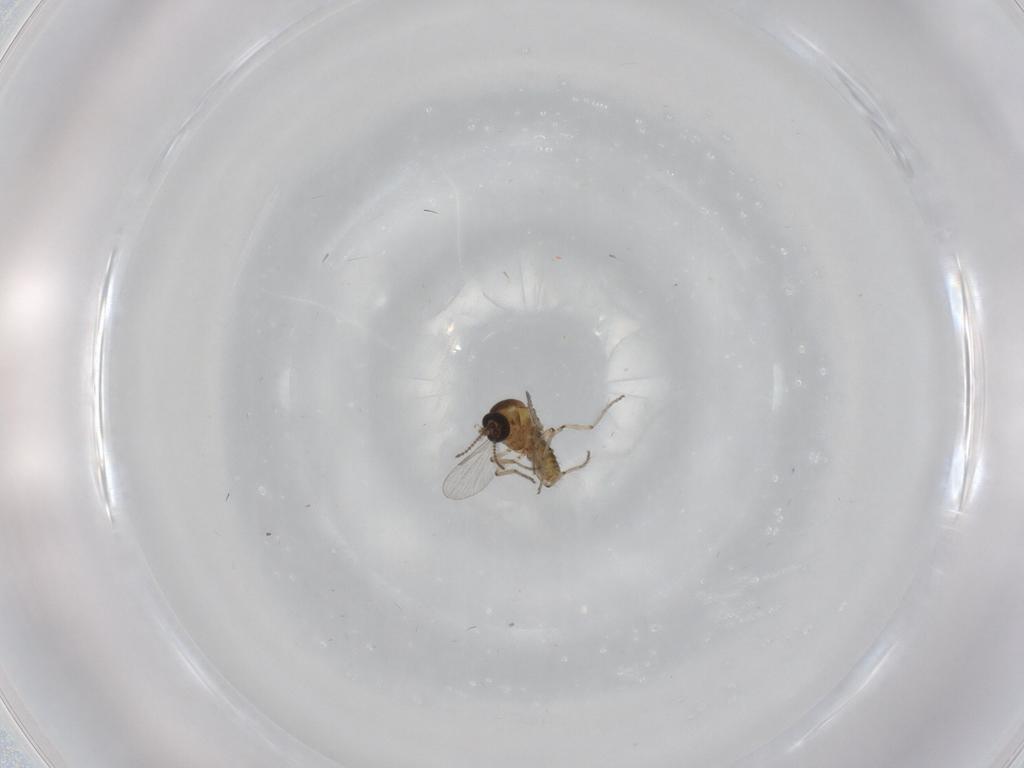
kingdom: Animalia
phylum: Arthropoda
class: Insecta
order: Diptera
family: Ceratopogonidae
